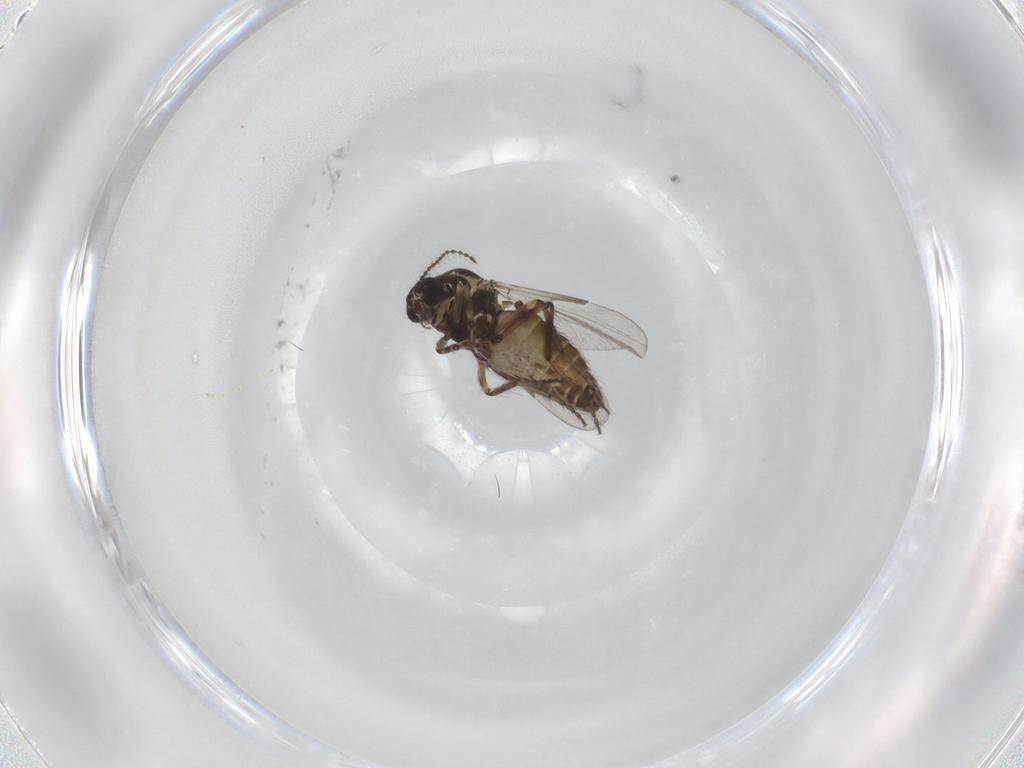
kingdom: Animalia
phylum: Arthropoda
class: Insecta
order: Diptera
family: Ceratopogonidae
